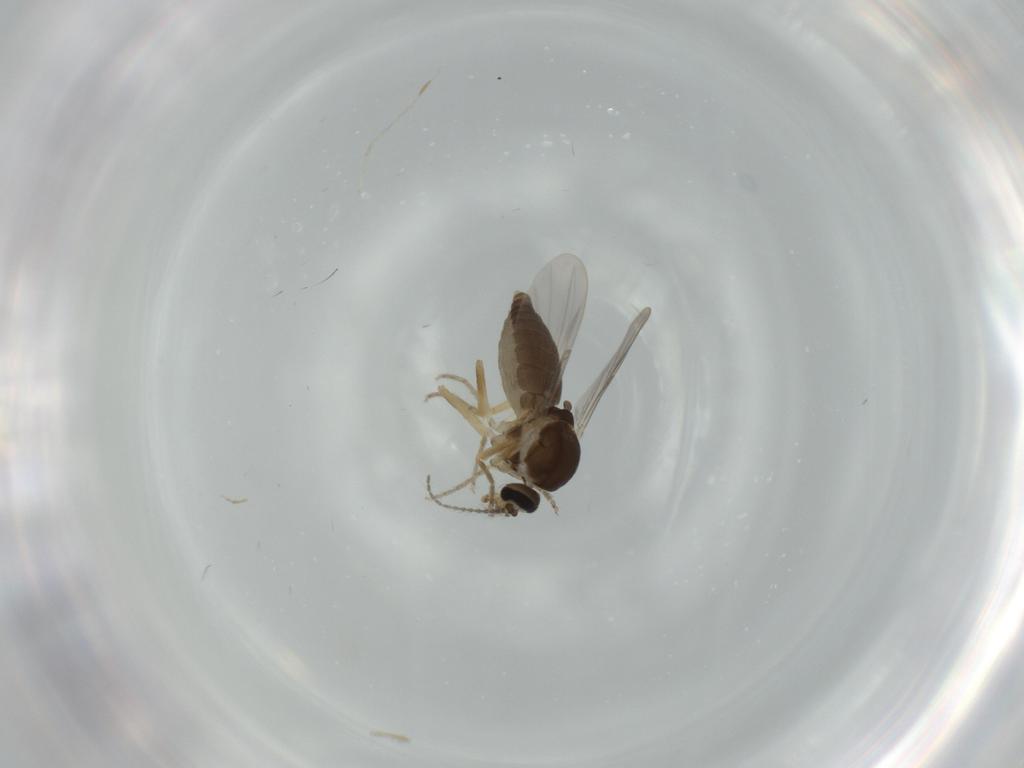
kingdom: Animalia
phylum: Arthropoda
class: Insecta
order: Diptera
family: Ceratopogonidae
